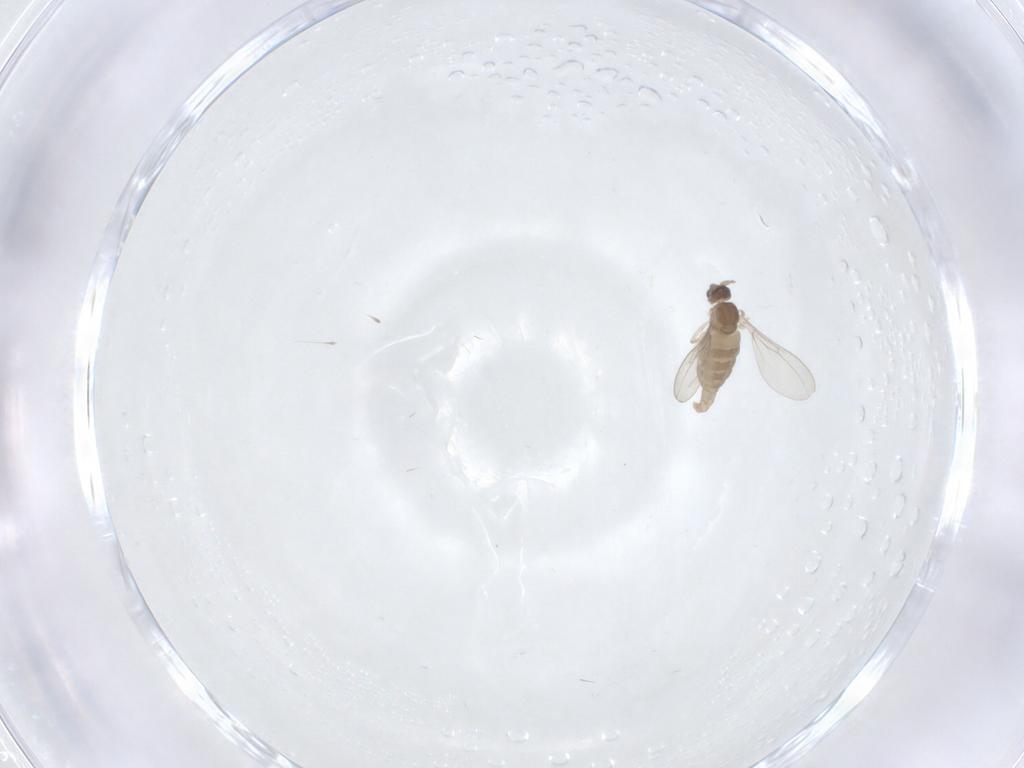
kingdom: Animalia
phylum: Arthropoda
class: Insecta
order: Diptera
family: Cecidomyiidae
